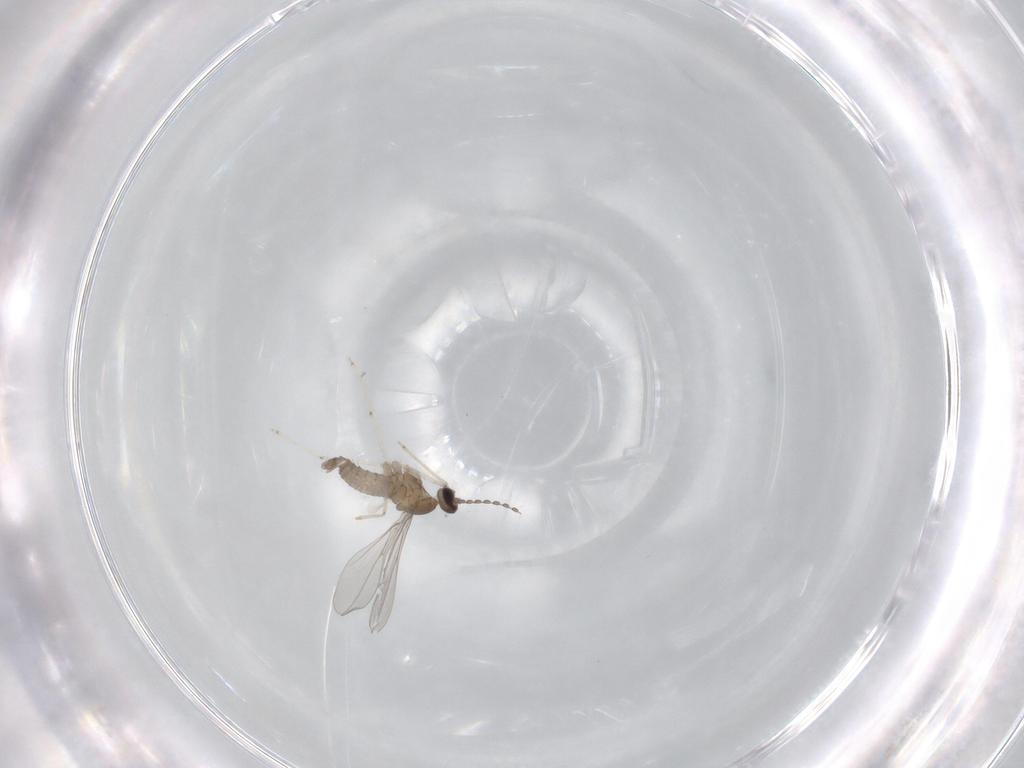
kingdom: Animalia
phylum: Arthropoda
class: Insecta
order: Diptera
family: Cecidomyiidae
